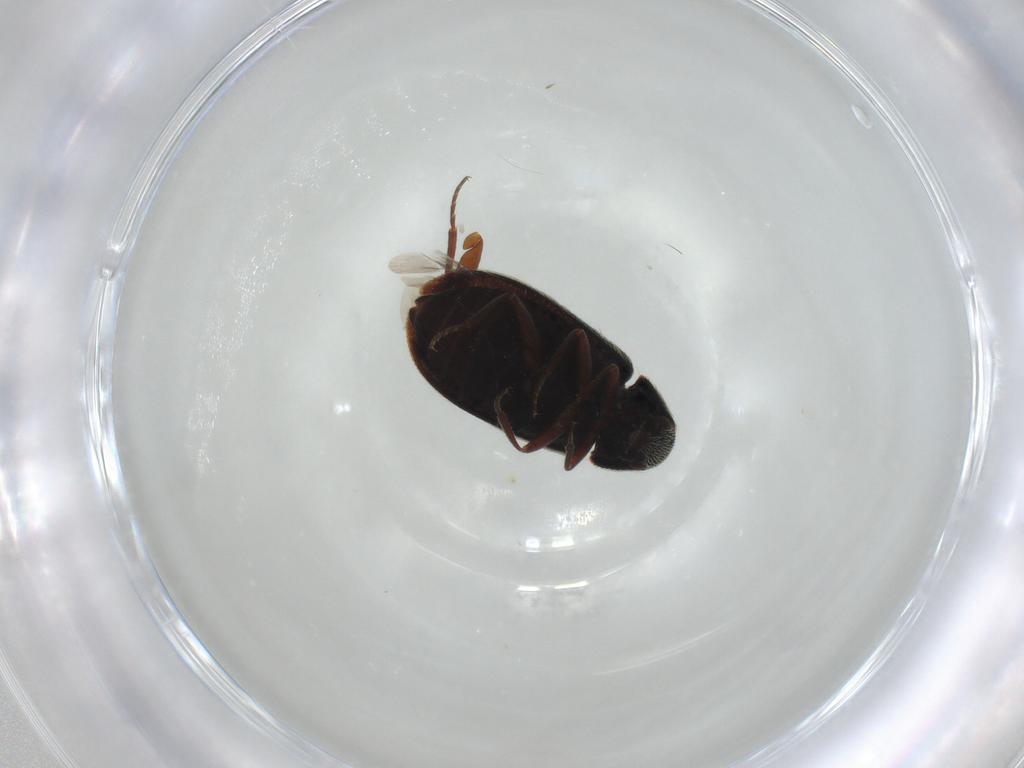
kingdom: Animalia
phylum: Arthropoda
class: Insecta
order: Coleoptera
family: Rhadalidae
